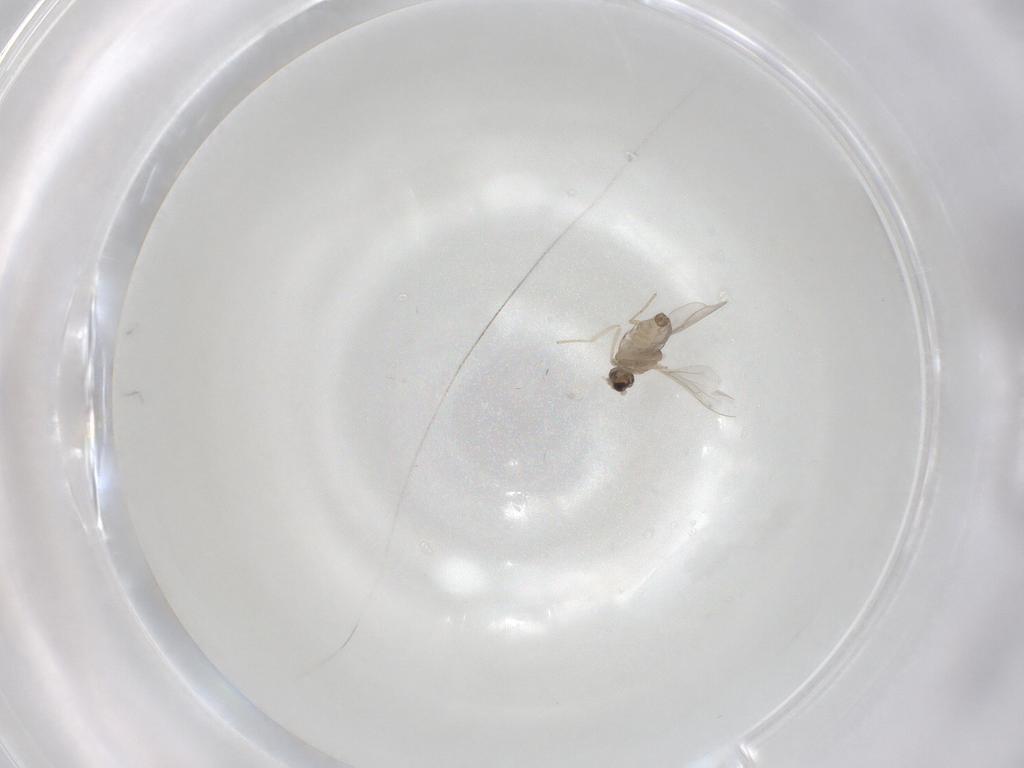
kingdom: Animalia
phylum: Arthropoda
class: Insecta
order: Diptera
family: Cecidomyiidae
